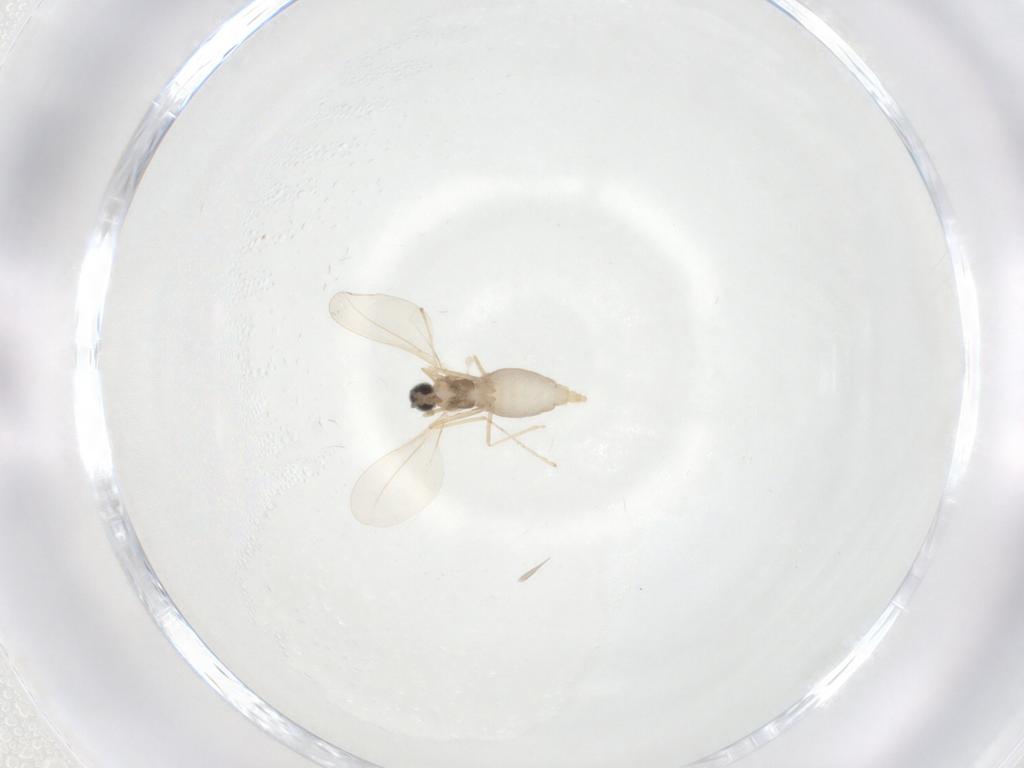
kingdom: Animalia
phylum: Arthropoda
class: Insecta
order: Diptera
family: Cecidomyiidae
